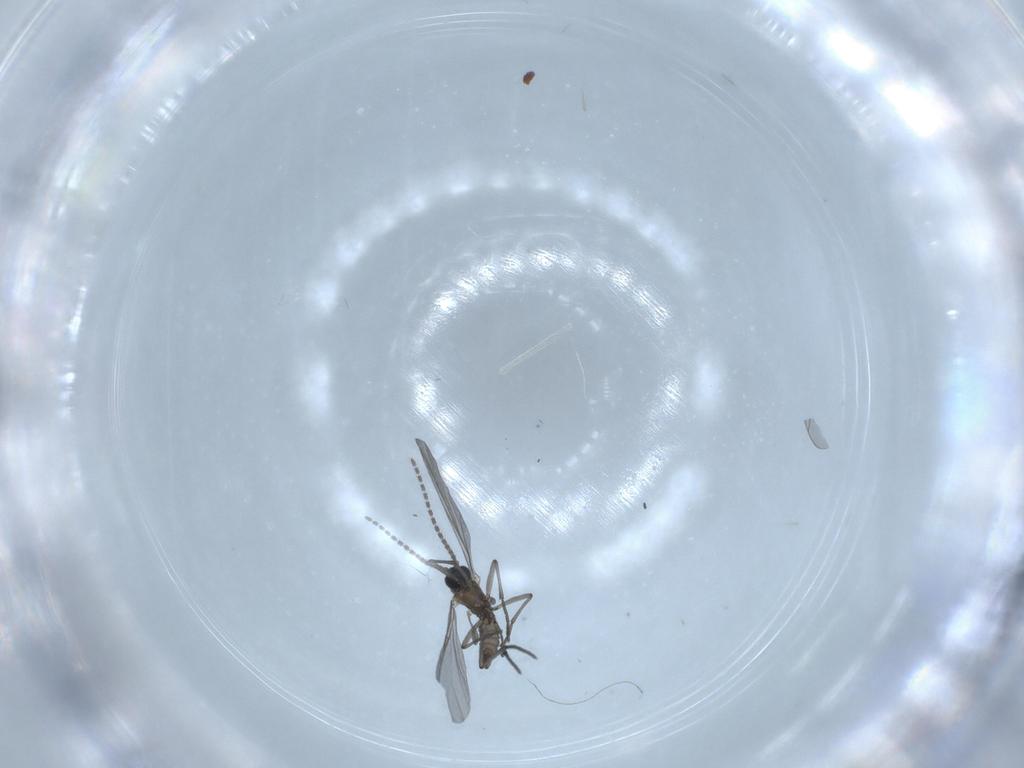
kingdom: Animalia
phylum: Arthropoda
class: Insecta
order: Diptera
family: Sciaridae
